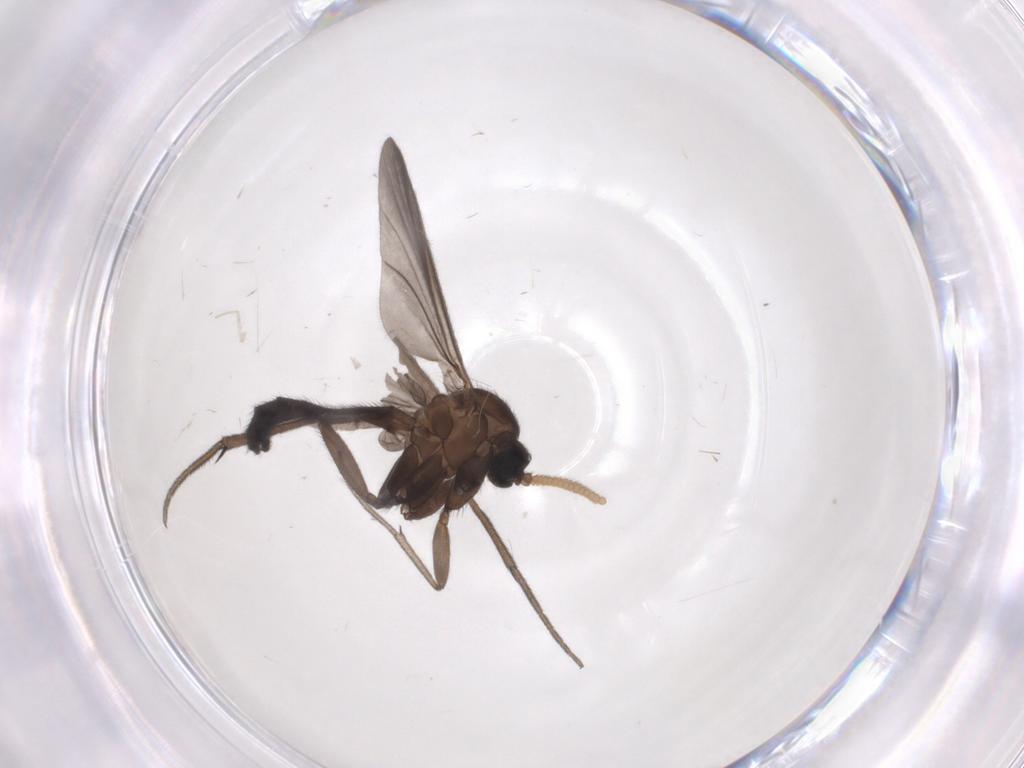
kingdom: Animalia
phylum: Arthropoda
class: Insecta
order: Diptera
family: Mycetophilidae
